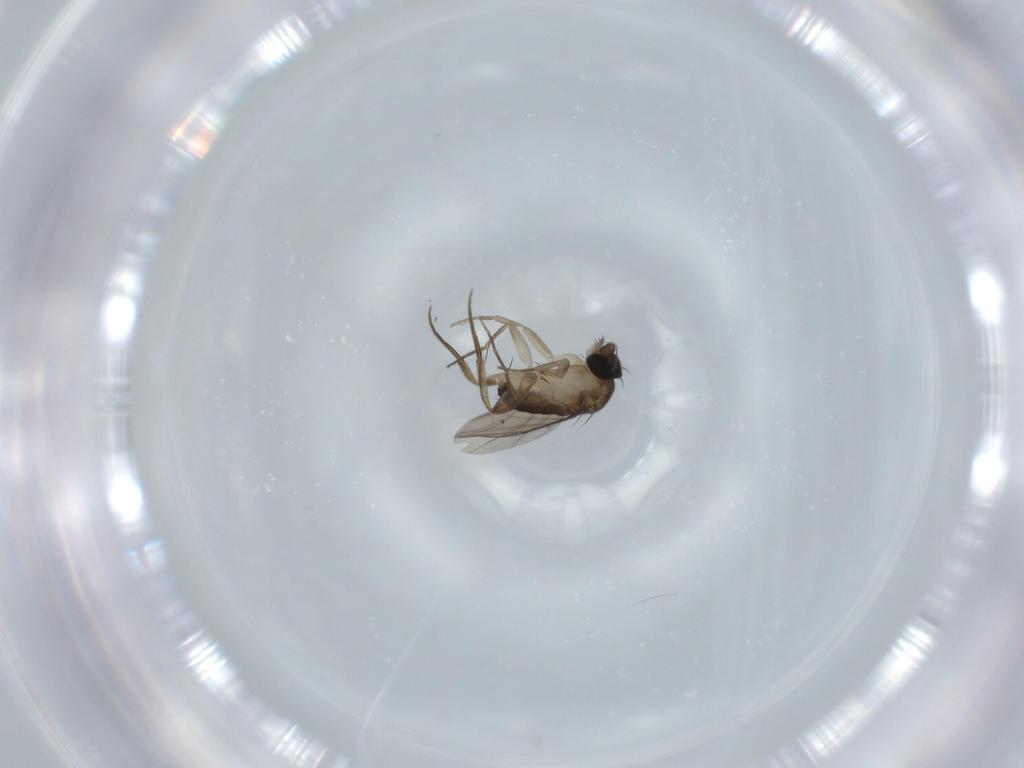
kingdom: Animalia
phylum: Arthropoda
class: Insecta
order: Diptera
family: Phoridae
